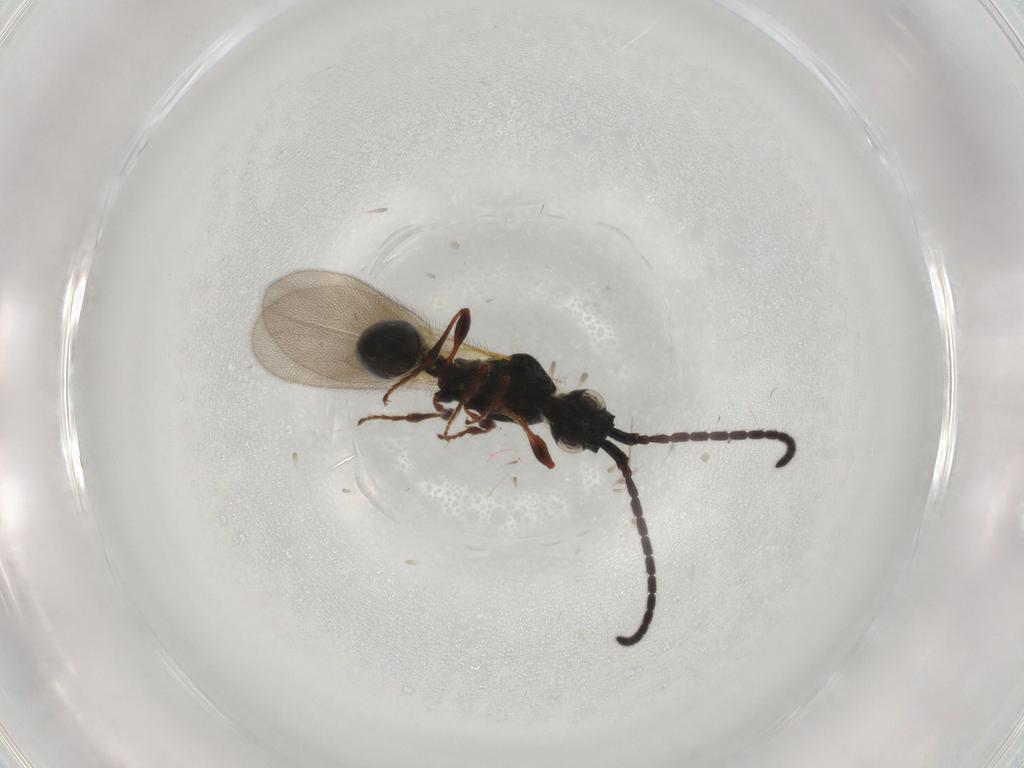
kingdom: Animalia
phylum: Arthropoda
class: Insecta
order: Hymenoptera
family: Diapriidae
